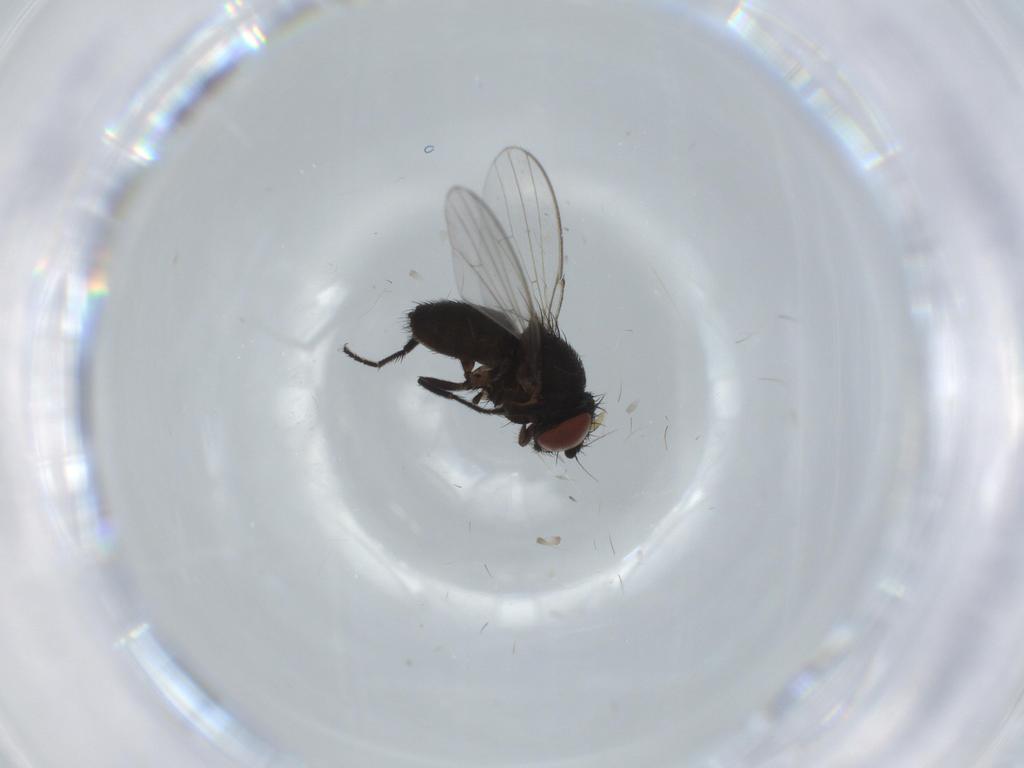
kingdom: Animalia
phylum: Arthropoda
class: Insecta
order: Diptera
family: Milichiidae
